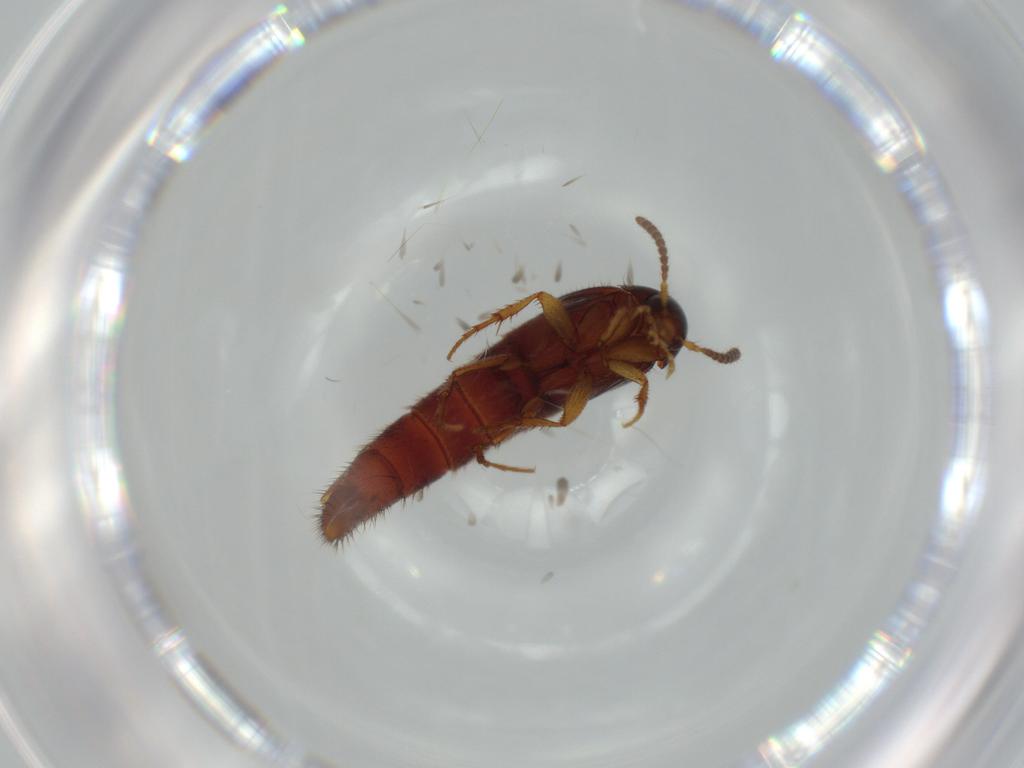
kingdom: Animalia
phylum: Arthropoda
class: Insecta
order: Coleoptera
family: Staphylinidae
